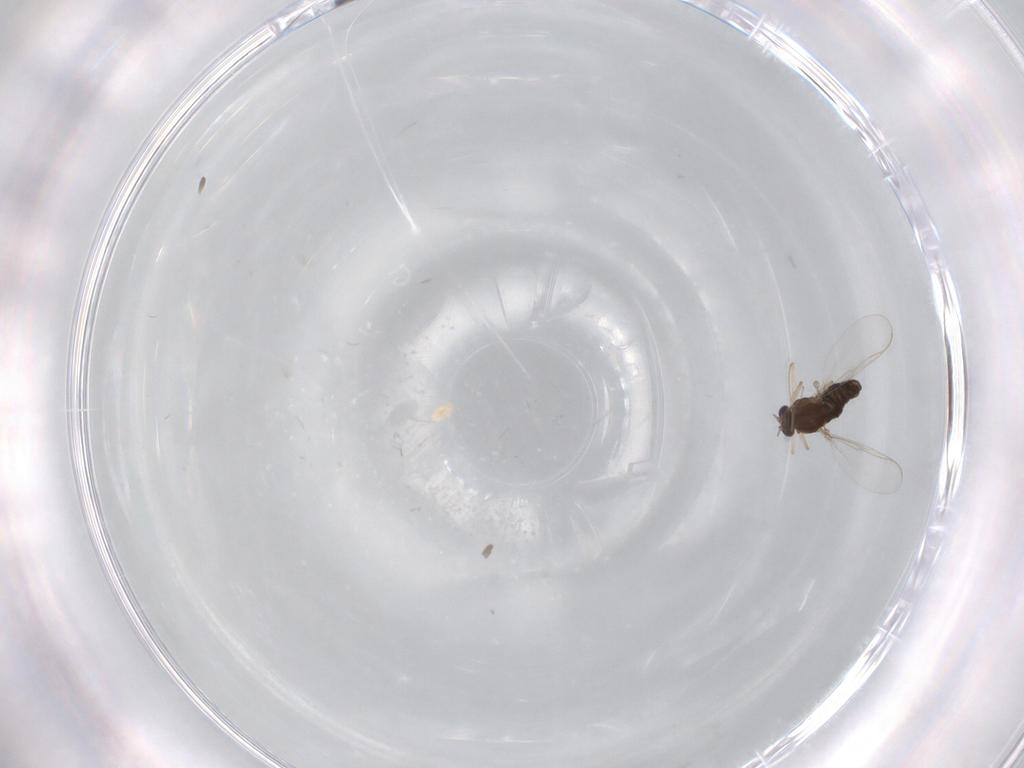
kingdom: Animalia
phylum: Arthropoda
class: Insecta
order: Diptera
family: Chironomidae
